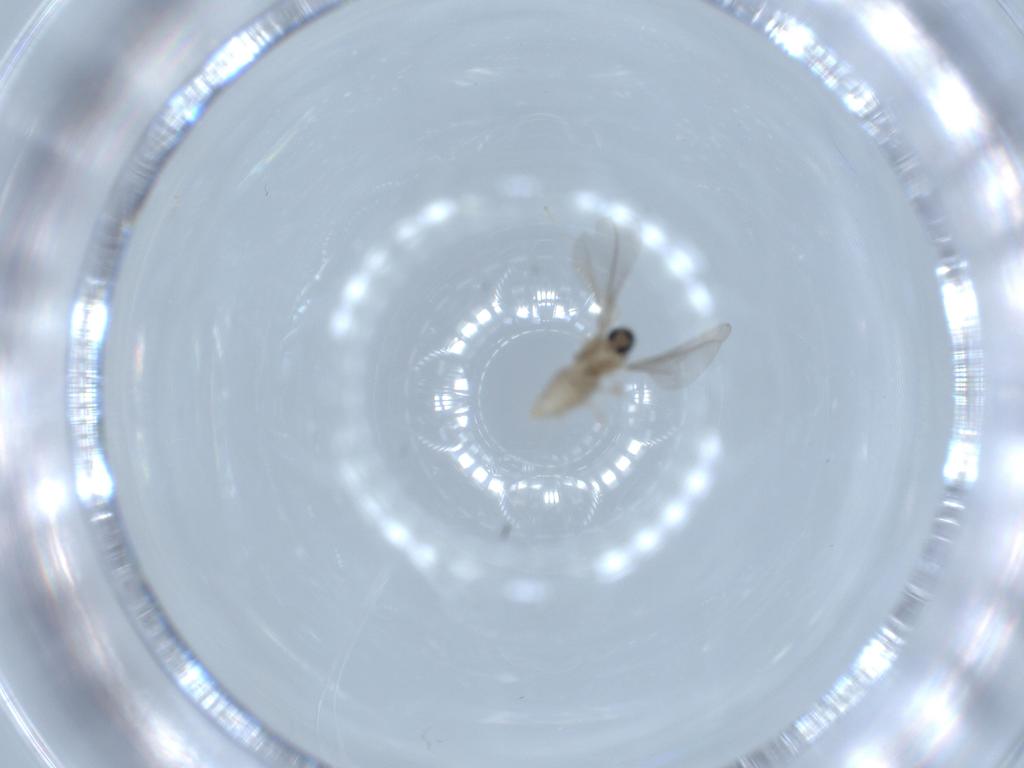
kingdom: Animalia
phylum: Arthropoda
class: Insecta
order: Diptera
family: Cecidomyiidae
